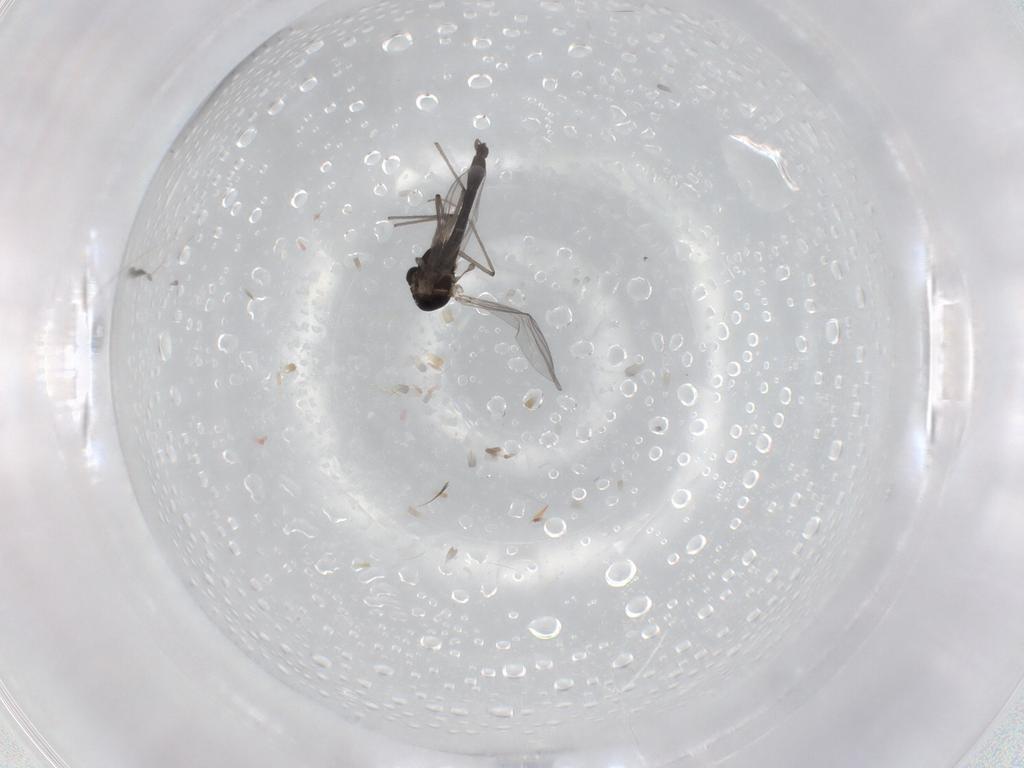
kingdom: Animalia
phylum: Arthropoda
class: Insecta
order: Diptera
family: Chironomidae
